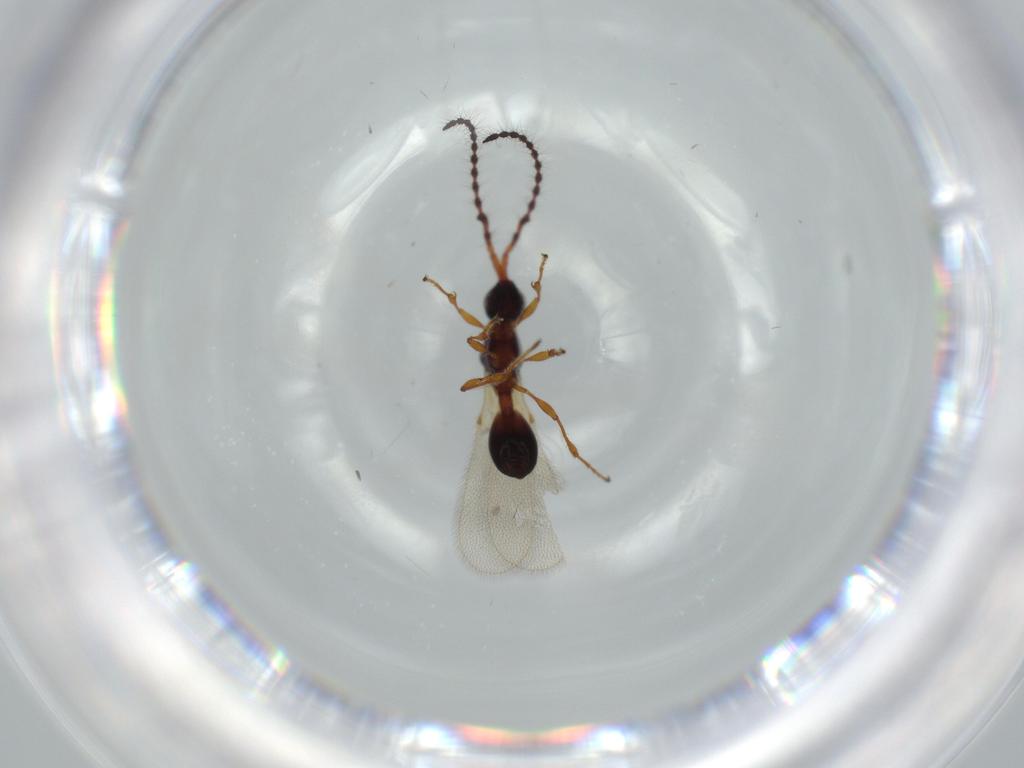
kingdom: Animalia
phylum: Arthropoda
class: Insecta
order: Hymenoptera
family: Diapriidae
